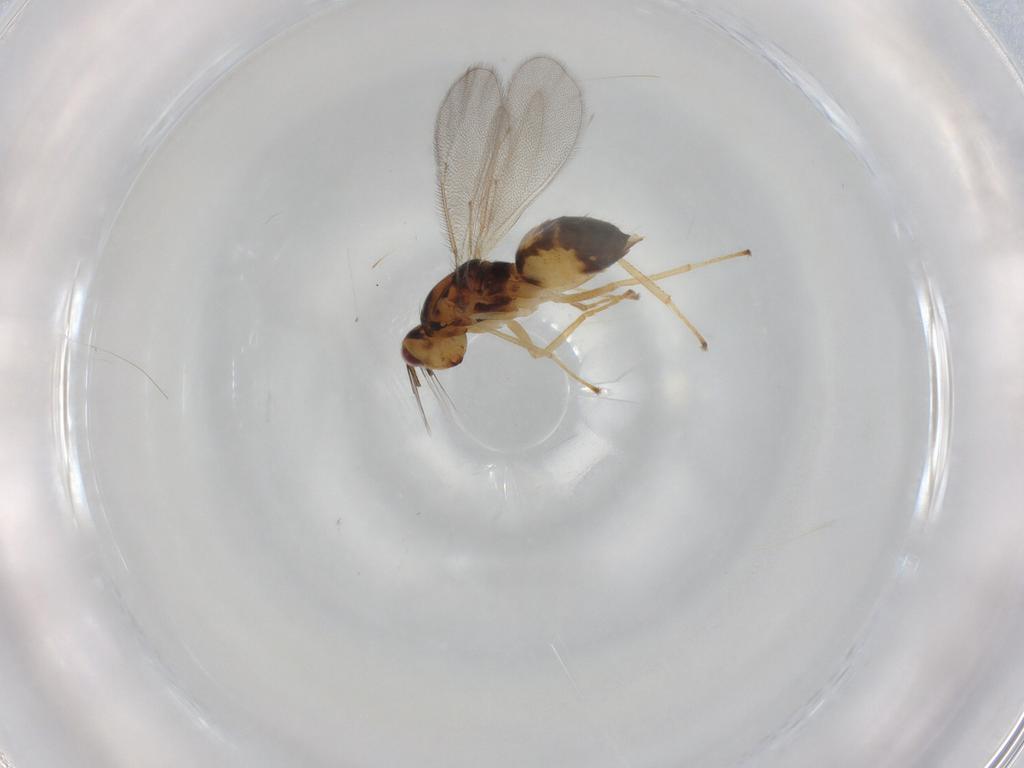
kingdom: Animalia
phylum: Arthropoda
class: Insecta
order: Hymenoptera
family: Eulophidae
